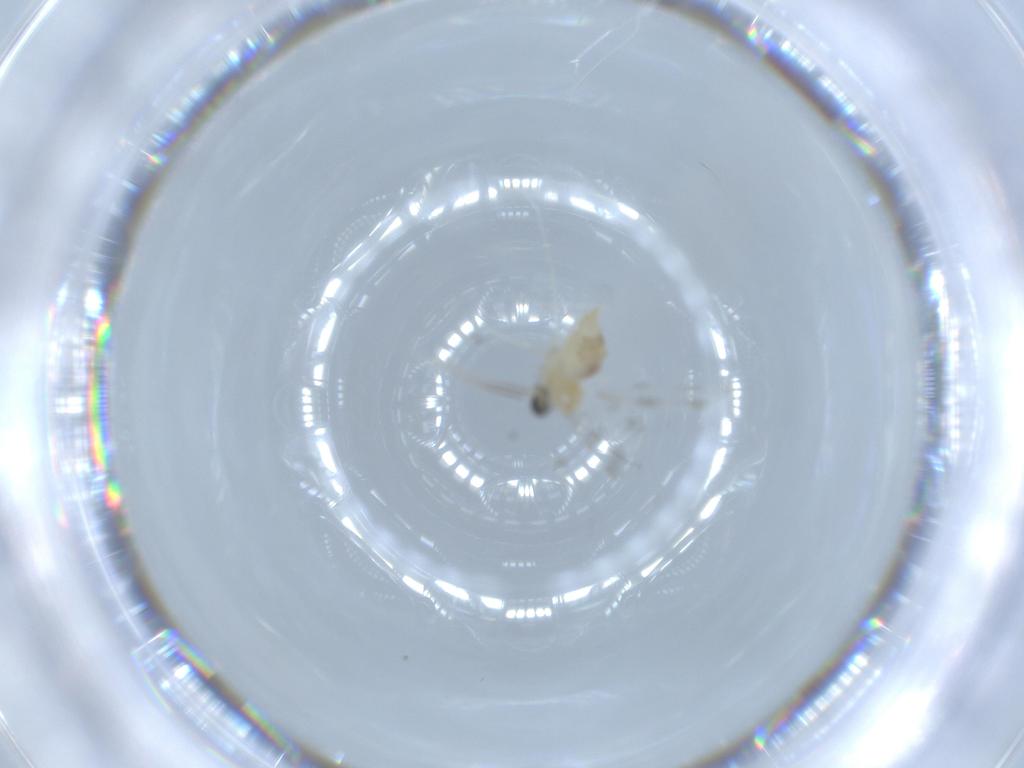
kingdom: Animalia
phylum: Arthropoda
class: Insecta
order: Diptera
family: Cecidomyiidae
